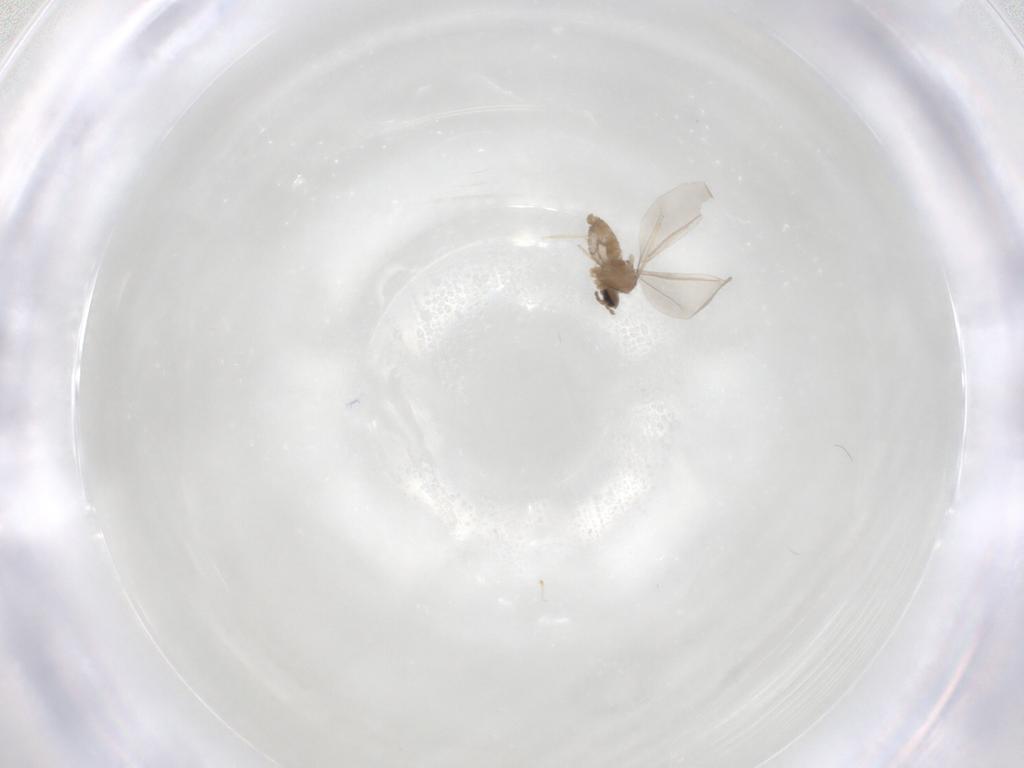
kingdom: Animalia
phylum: Arthropoda
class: Insecta
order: Diptera
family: Cecidomyiidae
